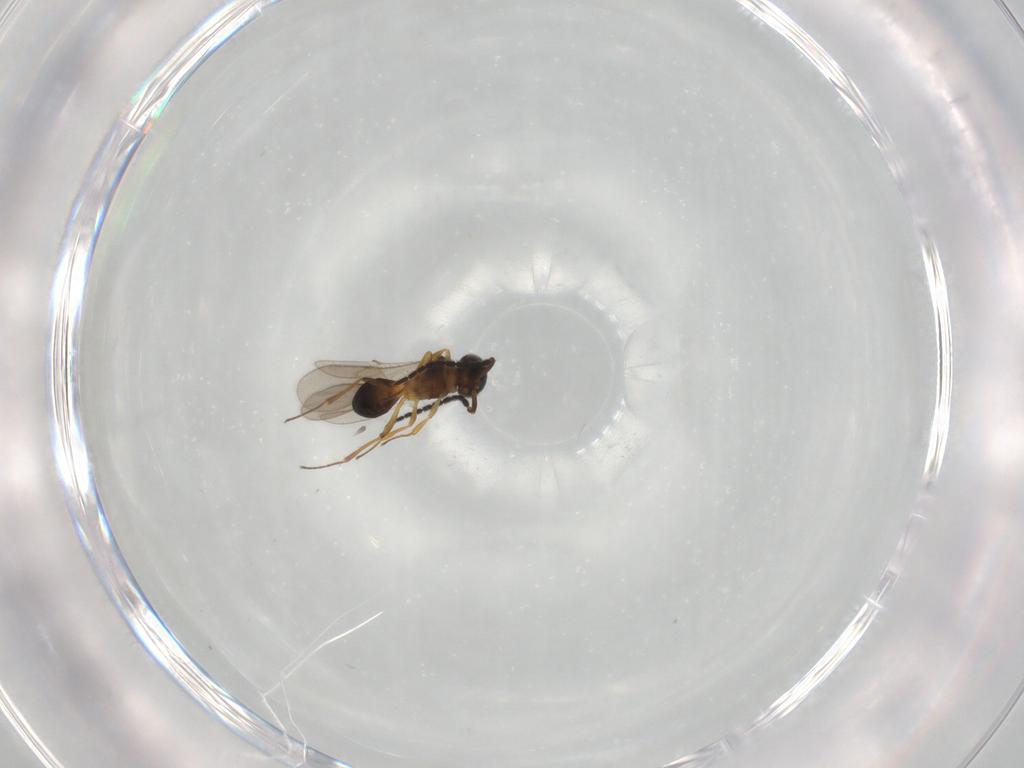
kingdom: Animalia
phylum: Arthropoda
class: Insecta
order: Hymenoptera
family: Scelionidae
